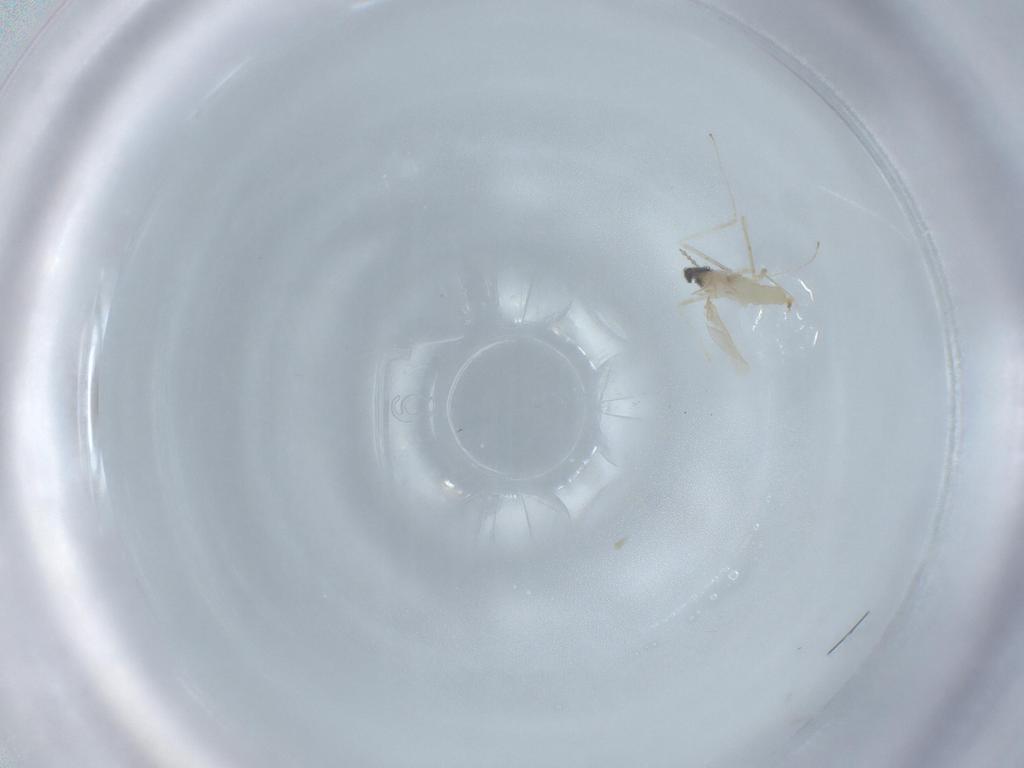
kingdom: Animalia
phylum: Arthropoda
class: Insecta
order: Diptera
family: Cecidomyiidae
